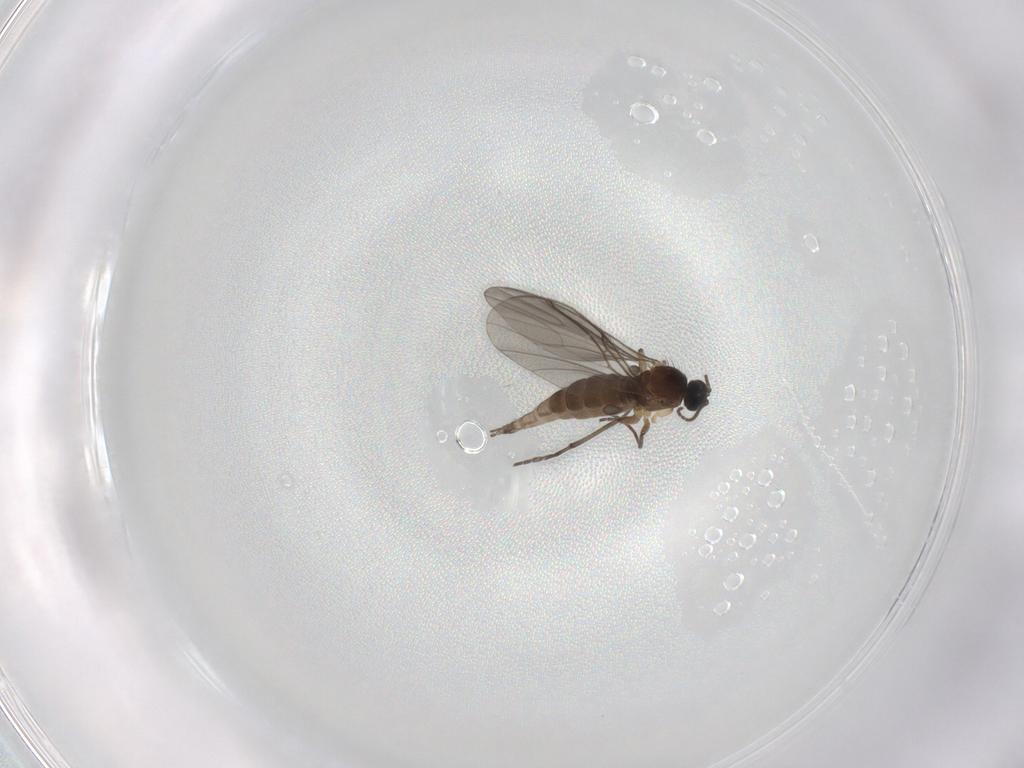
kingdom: Animalia
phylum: Arthropoda
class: Insecta
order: Diptera
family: Sciaridae
